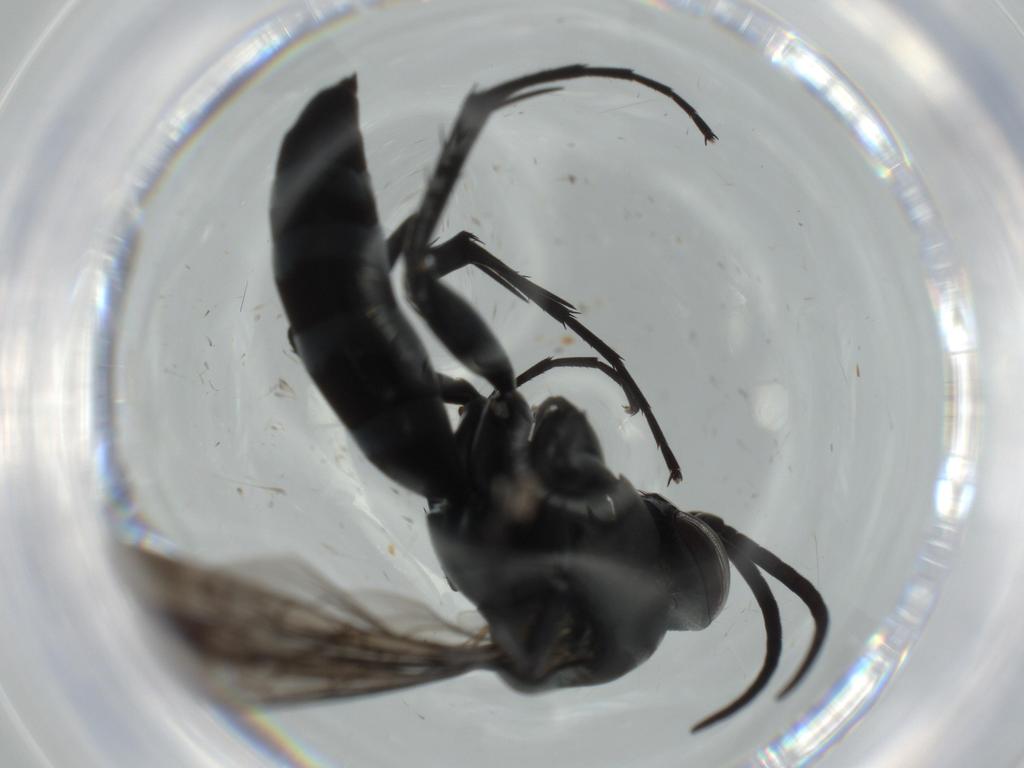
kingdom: Animalia
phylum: Arthropoda
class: Insecta
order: Hymenoptera
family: Pompilidae
